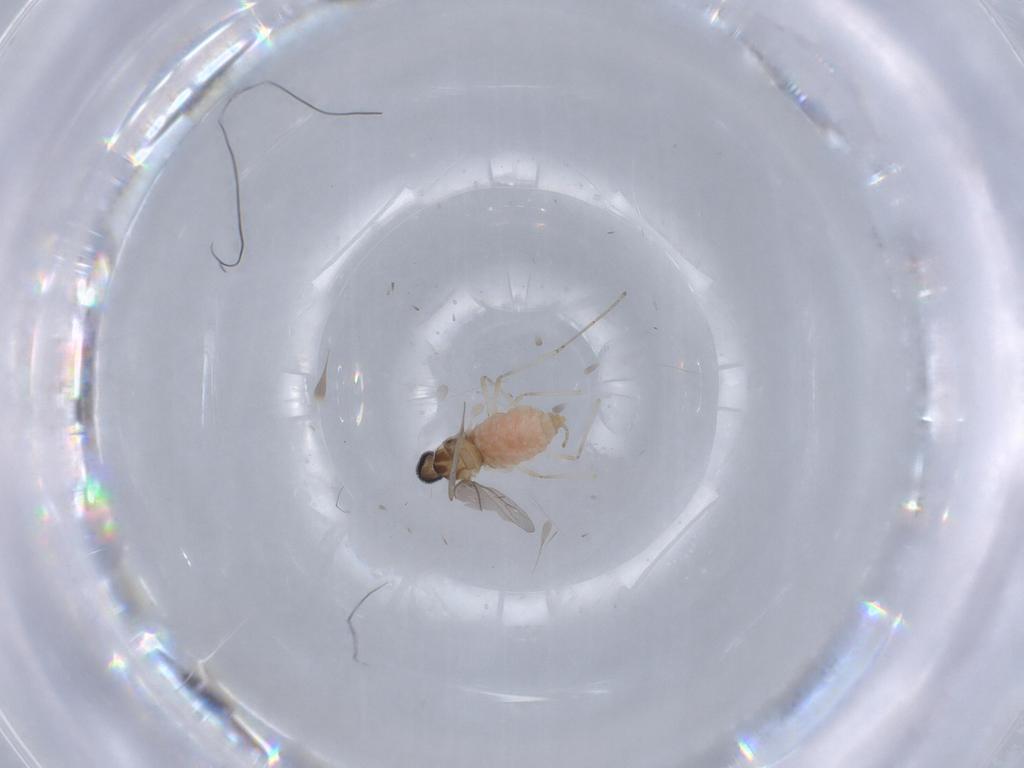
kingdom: Animalia
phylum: Arthropoda
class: Insecta
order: Diptera
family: Cecidomyiidae
